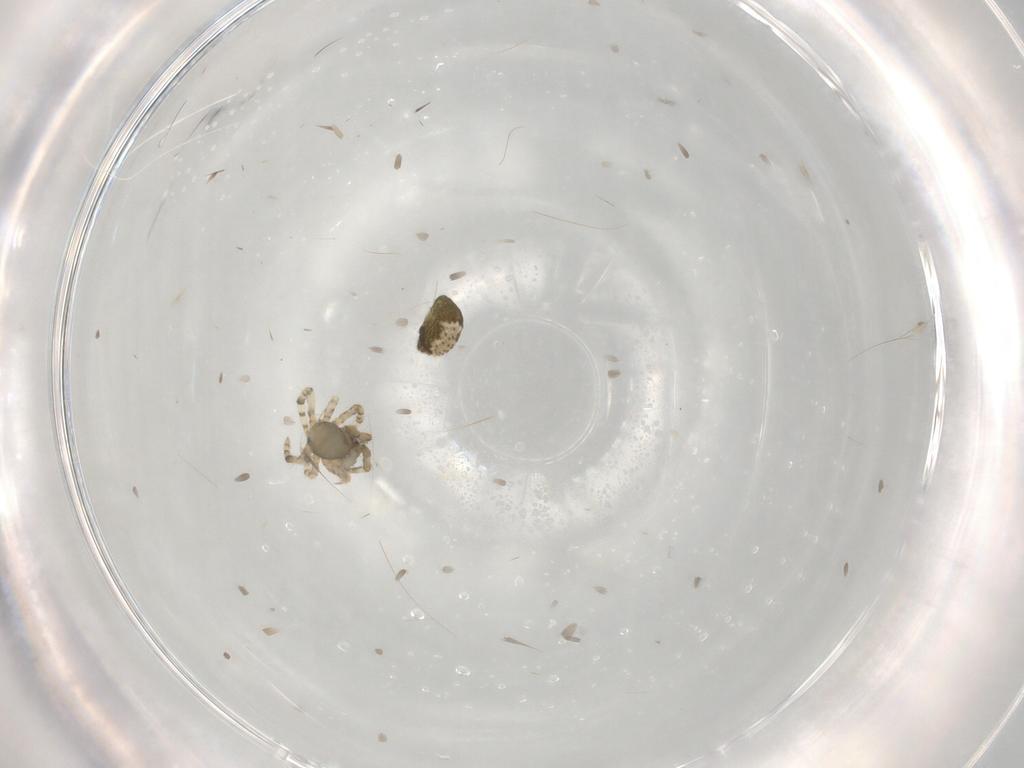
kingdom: Animalia
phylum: Arthropoda
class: Arachnida
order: Araneae
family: Theridiidae
